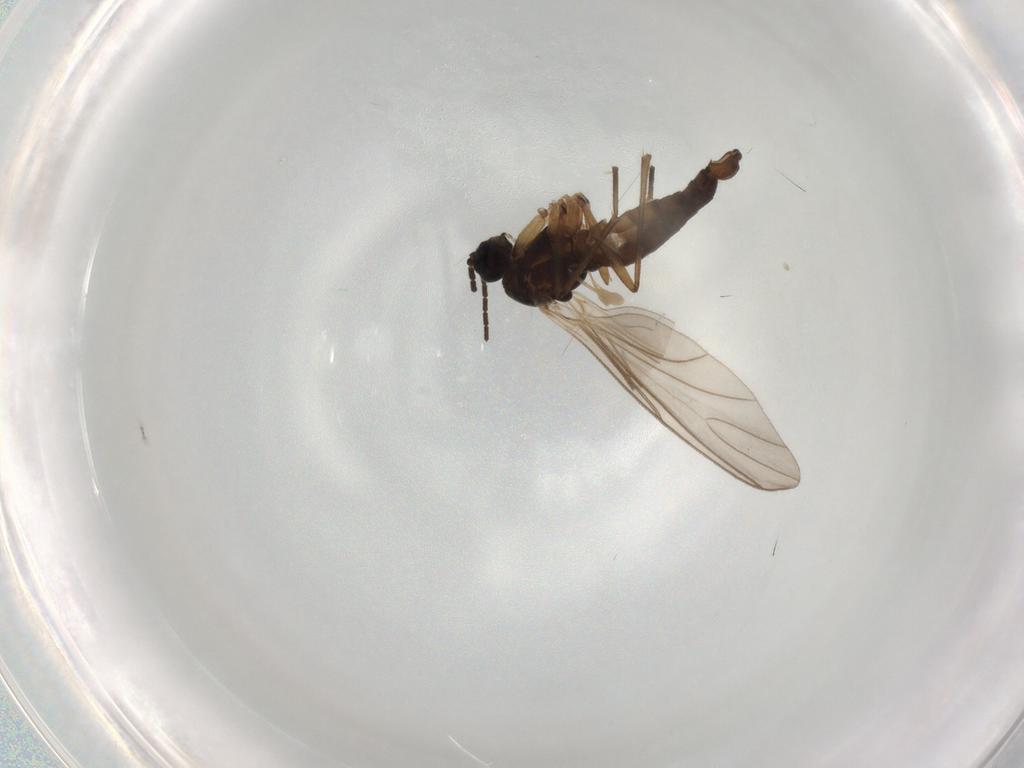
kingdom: Animalia
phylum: Arthropoda
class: Insecta
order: Diptera
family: Sciaridae
